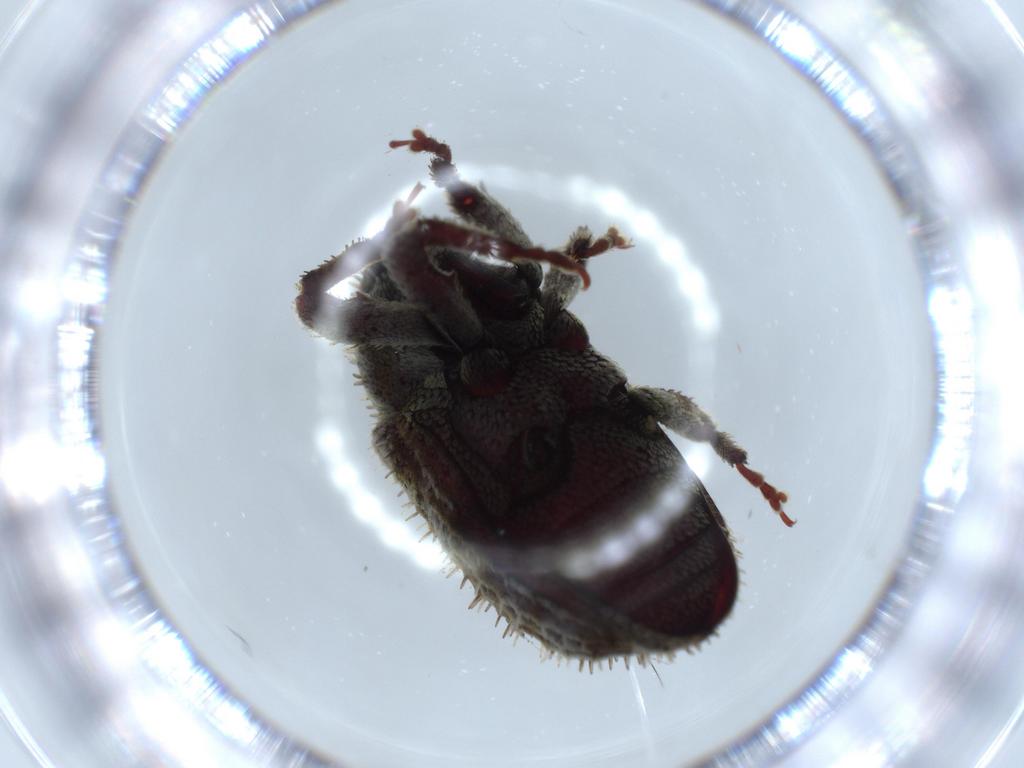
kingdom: Animalia
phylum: Arthropoda
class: Insecta
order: Coleoptera
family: Curculionidae
